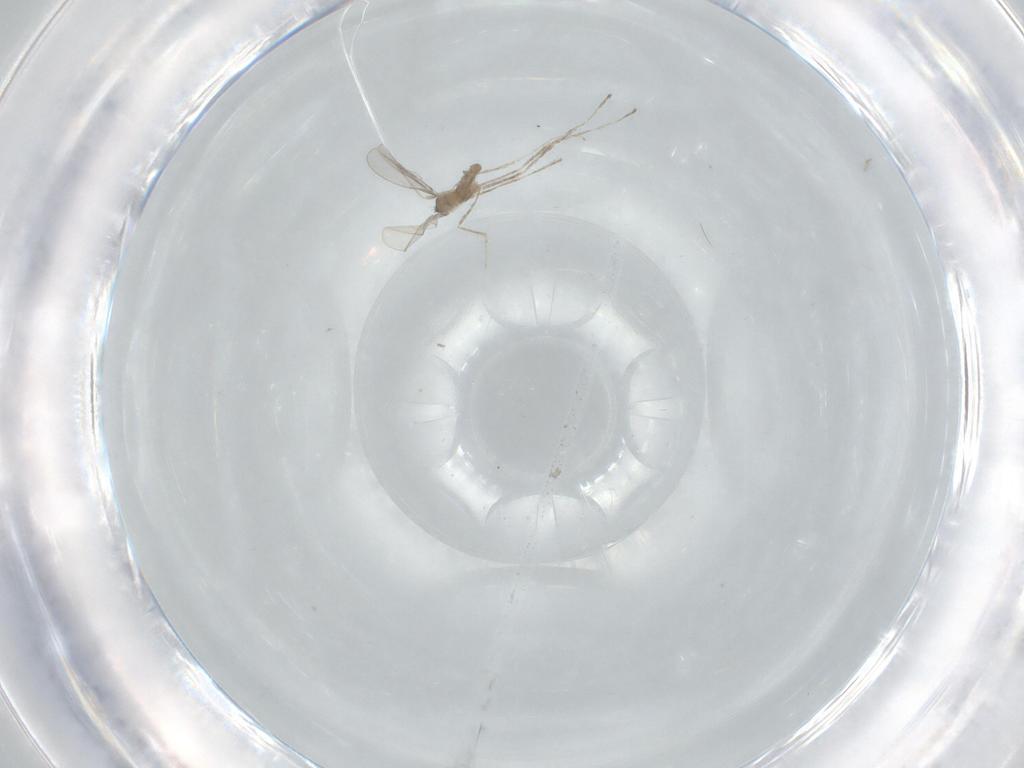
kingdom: Animalia
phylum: Arthropoda
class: Insecta
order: Diptera
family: Cecidomyiidae
